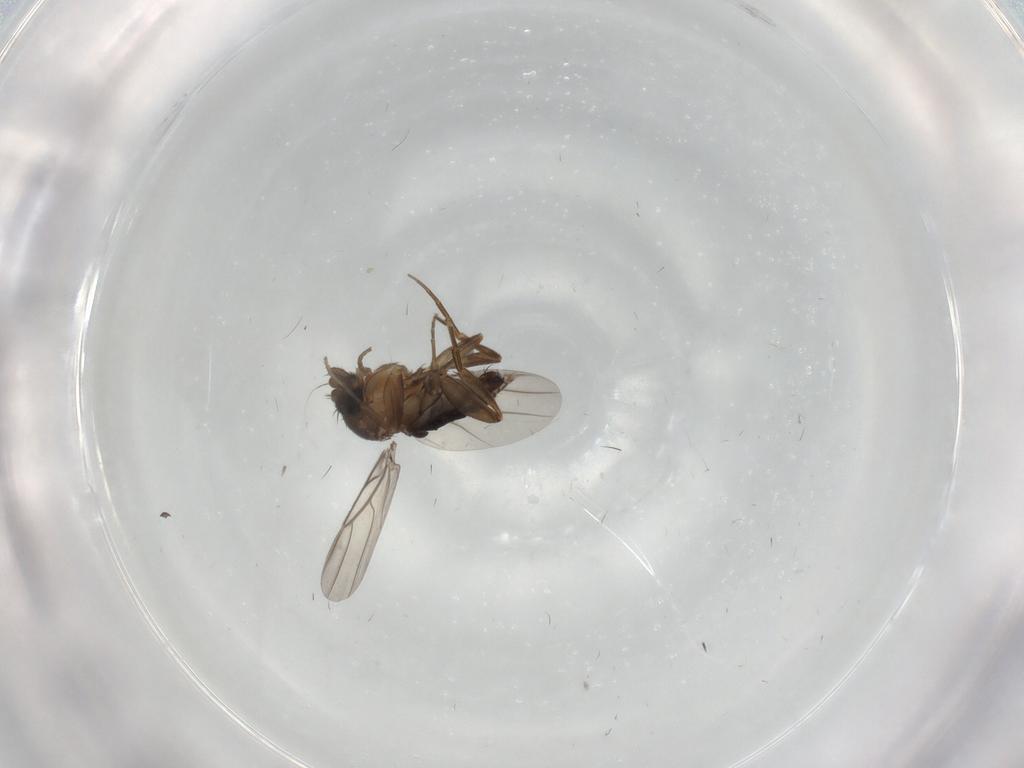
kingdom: Animalia
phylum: Arthropoda
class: Insecta
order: Diptera
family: Phoridae
